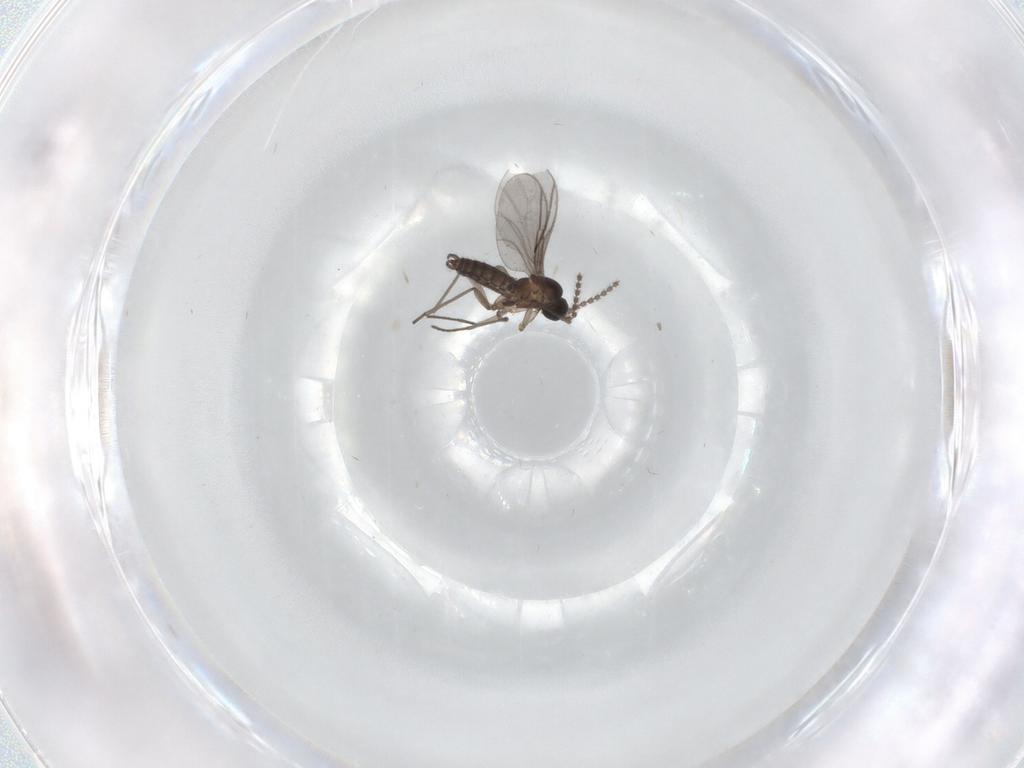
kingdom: Animalia
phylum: Arthropoda
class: Insecta
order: Diptera
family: Sciaridae
